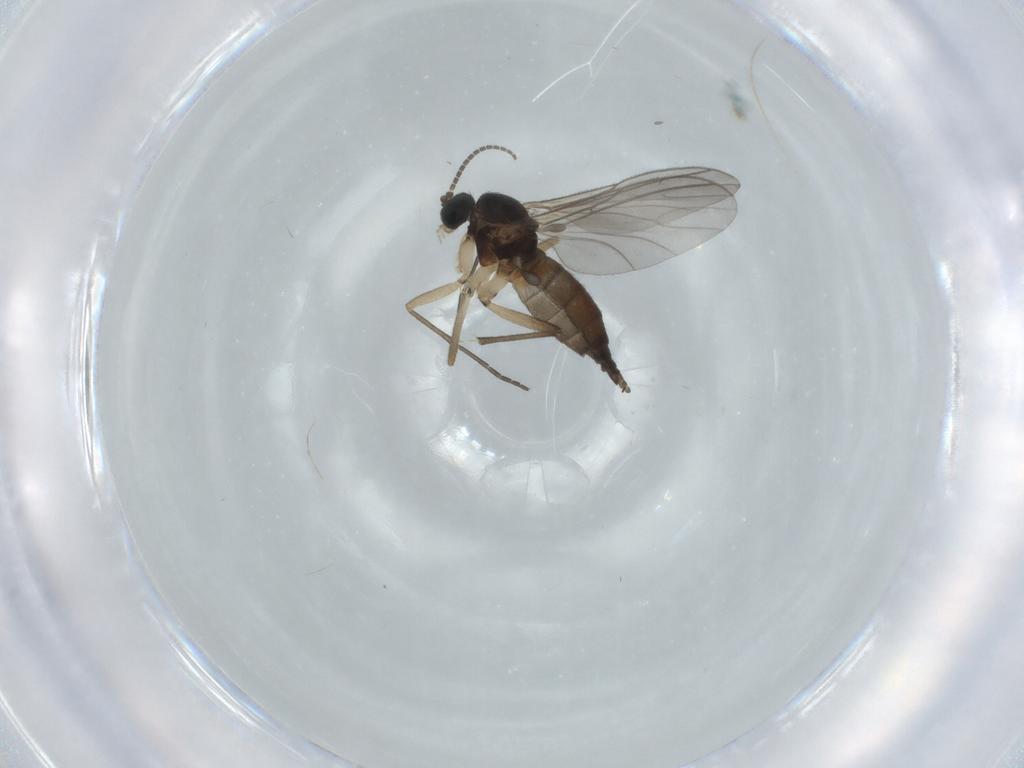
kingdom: Animalia
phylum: Arthropoda
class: Insecta
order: Diptera
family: Sciaridae
